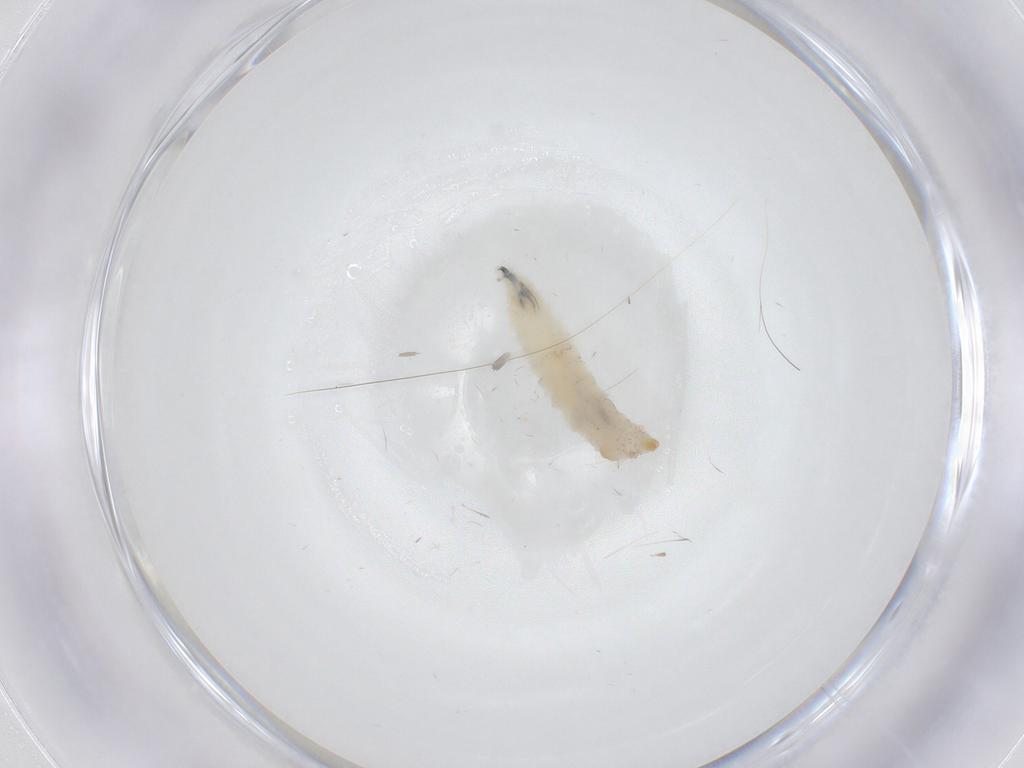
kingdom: Animalia
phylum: Arthropoda
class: Insecta
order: Diptera
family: Drosophilidae
